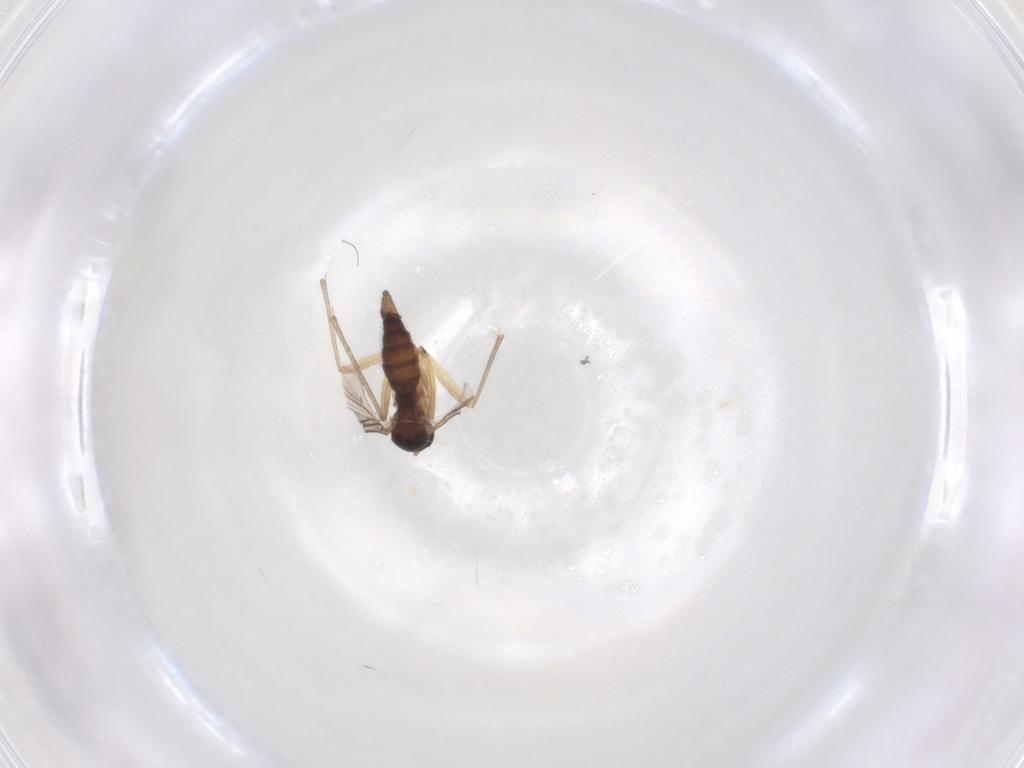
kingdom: Animalia
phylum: Arthropoda
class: Insecta
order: Diptera
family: Sciaridae
